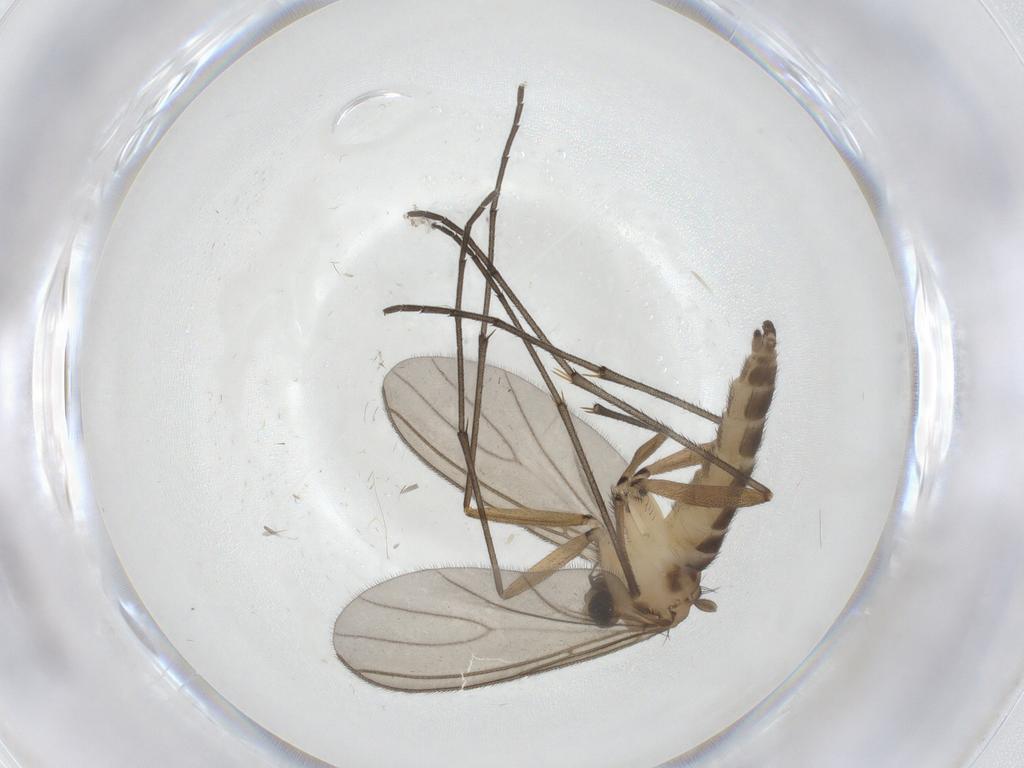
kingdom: Animalia
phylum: Arthropoda
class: Insecta
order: Diptera
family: Sciaridae
